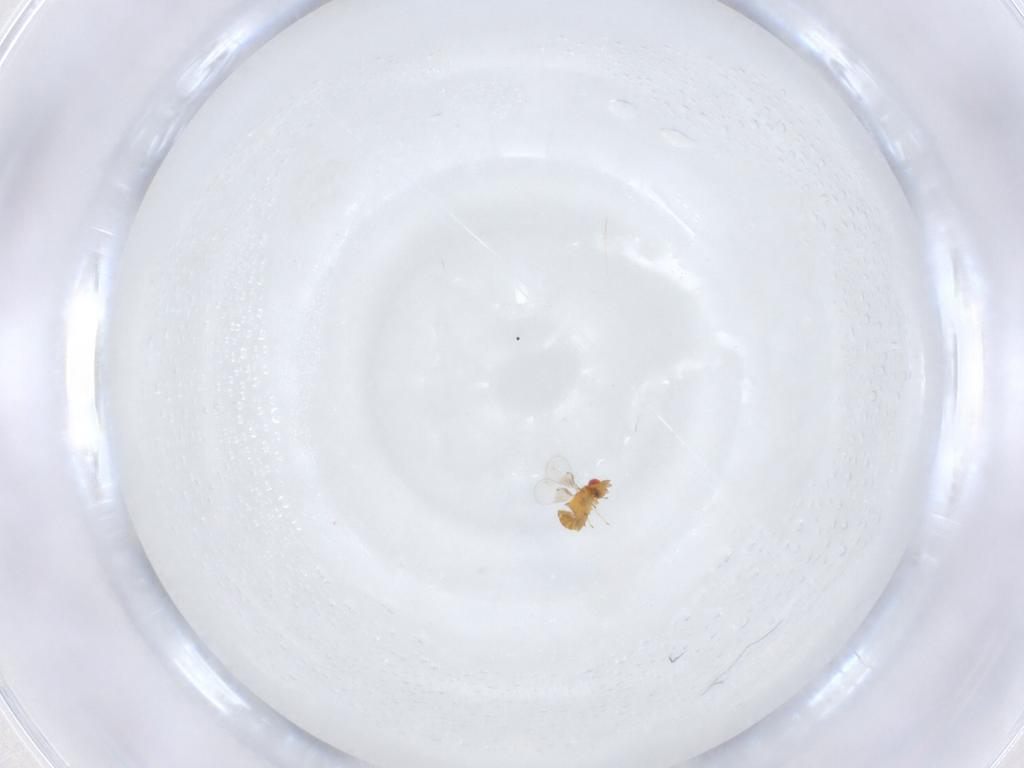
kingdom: Animalia
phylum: Arthropoda
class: Insecta
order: Hymenoptera
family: Trichogrammatidae
